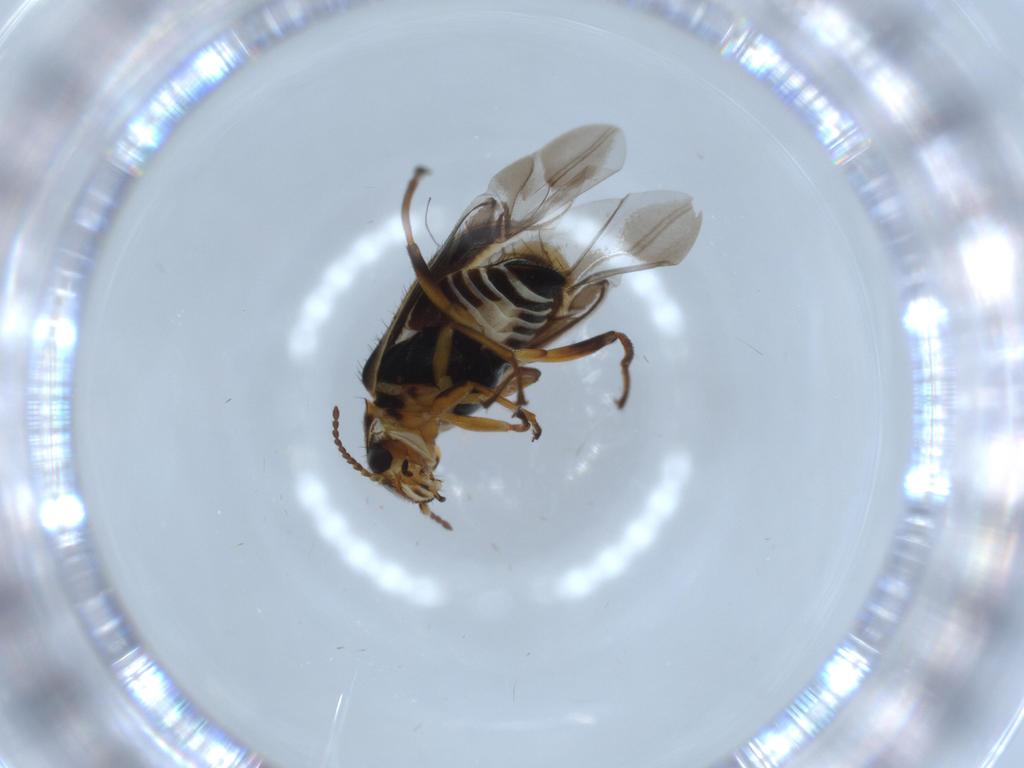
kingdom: Animalia
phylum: Arthropoda
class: Insecta
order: Coleoptera
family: Melyridae
